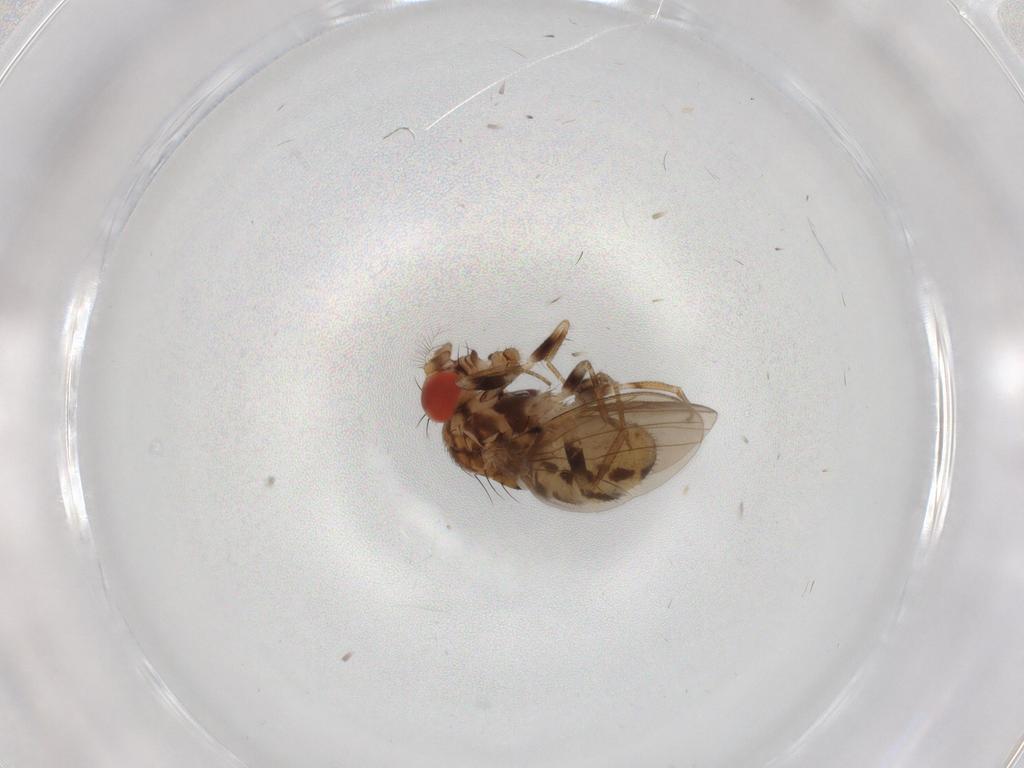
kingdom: Animalia
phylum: Arthropoda
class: Insecta
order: Diptera
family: Drosophilidae
